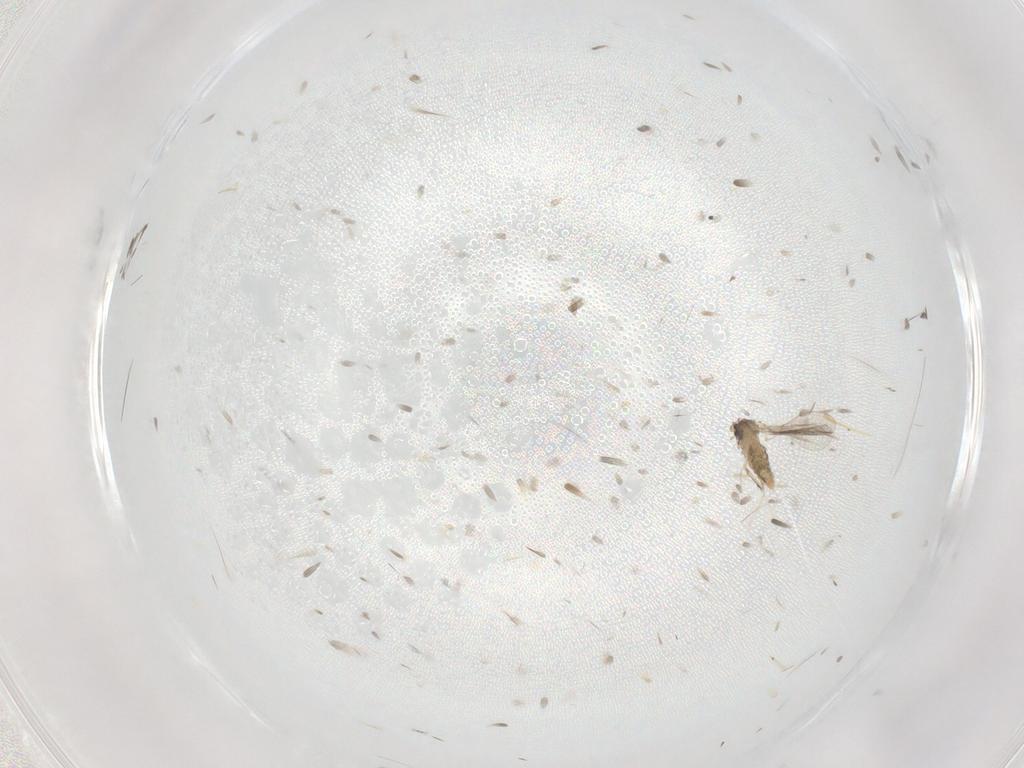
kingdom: Animalia
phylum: Arthropoda
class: Insecta
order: Diptera
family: Cecidomyiidae
